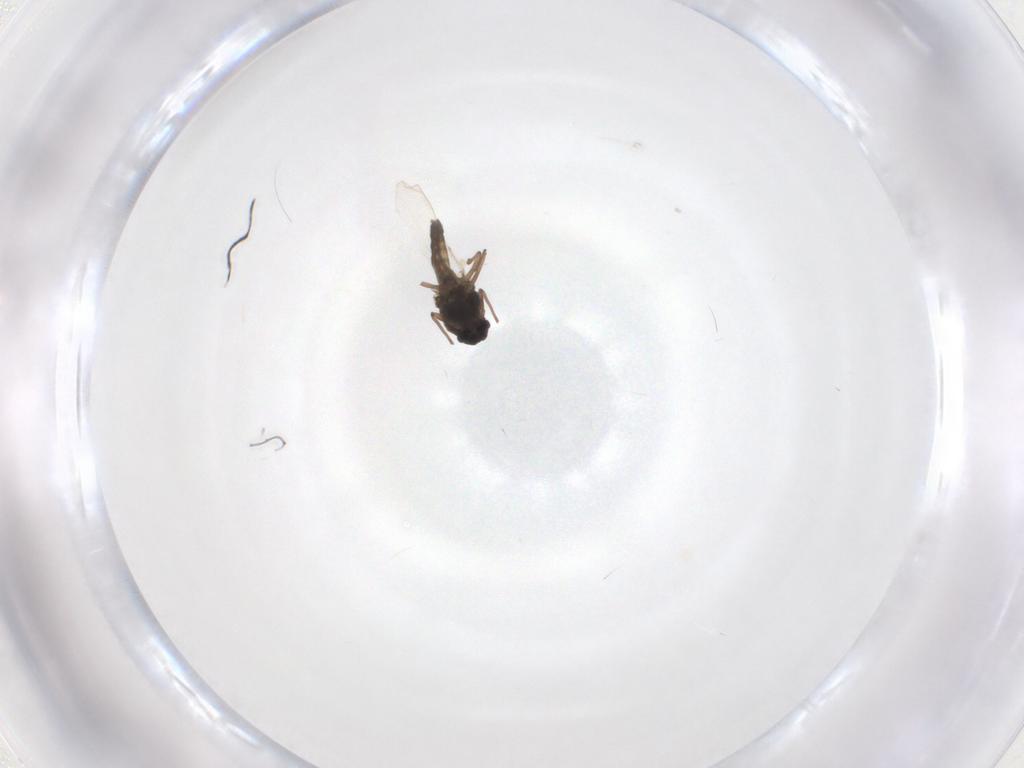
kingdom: Animalia
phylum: Arthropoda
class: Insecta
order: Diptera
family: Chironomidae
